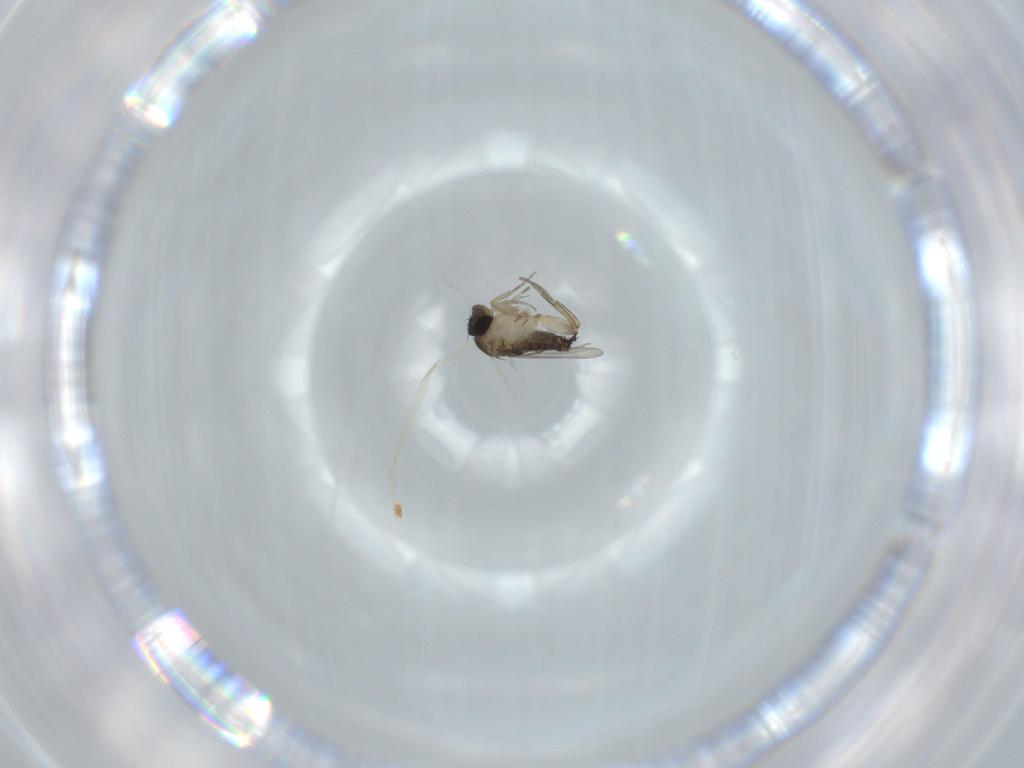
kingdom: Animalia
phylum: Arthropoda
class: Insecta
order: Diptera
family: Phoridae
